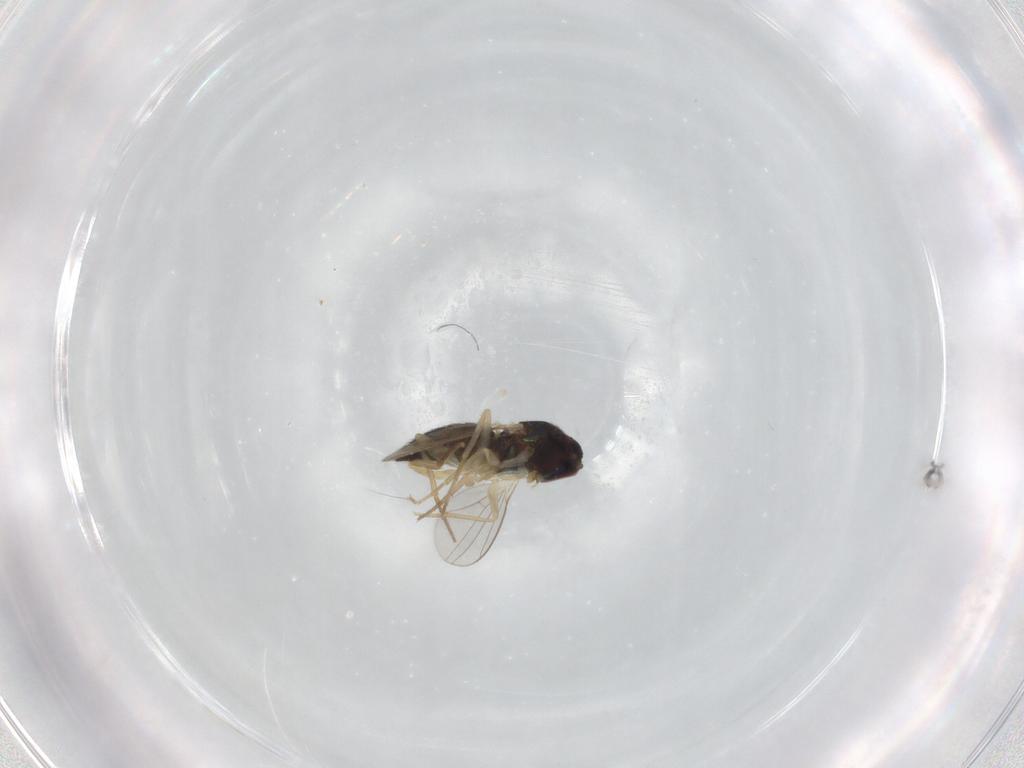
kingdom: Animalia
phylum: Arthropoda
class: Insecta
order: Diptera
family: Dolichopodidae
